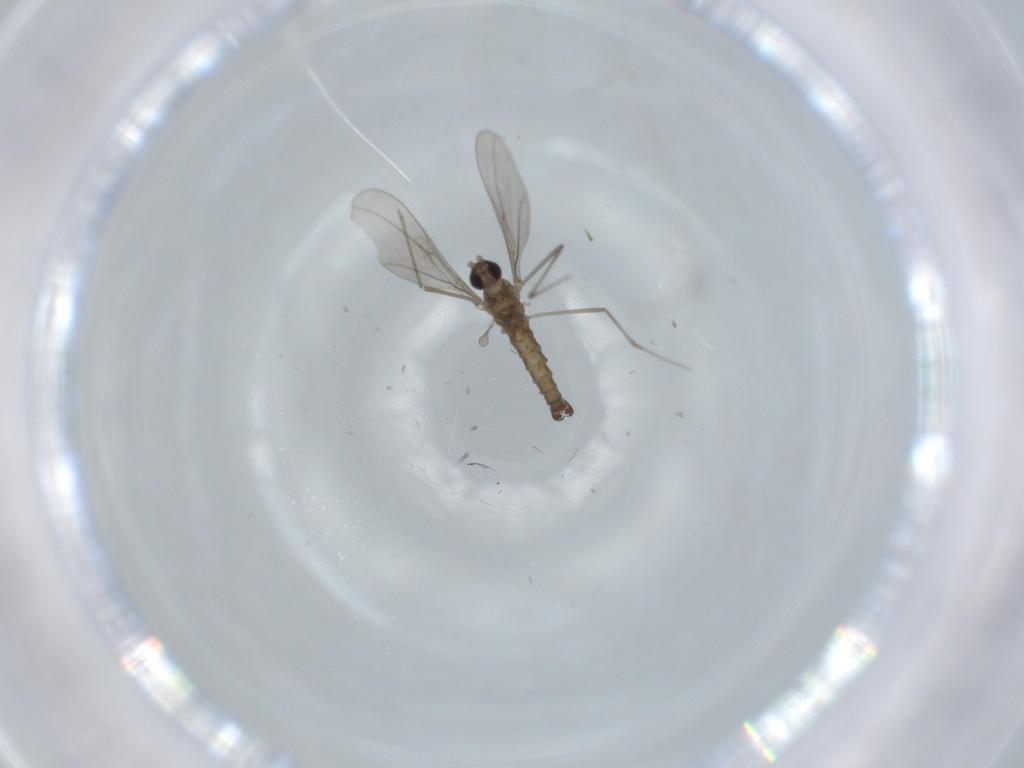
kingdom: Animalia
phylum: Arthropoda
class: Insecta
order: Diptera
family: Cecidomyiidae
